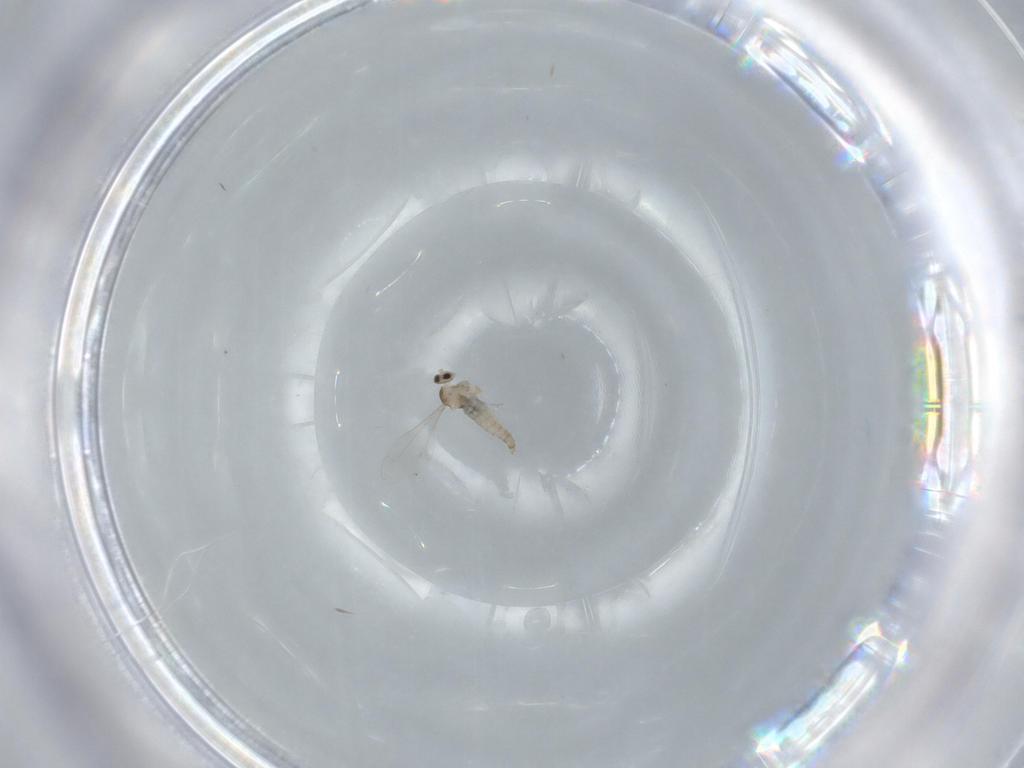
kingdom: Animalia
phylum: Arthropoda
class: Insecta
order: Diptera
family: Cecidomyiidae
